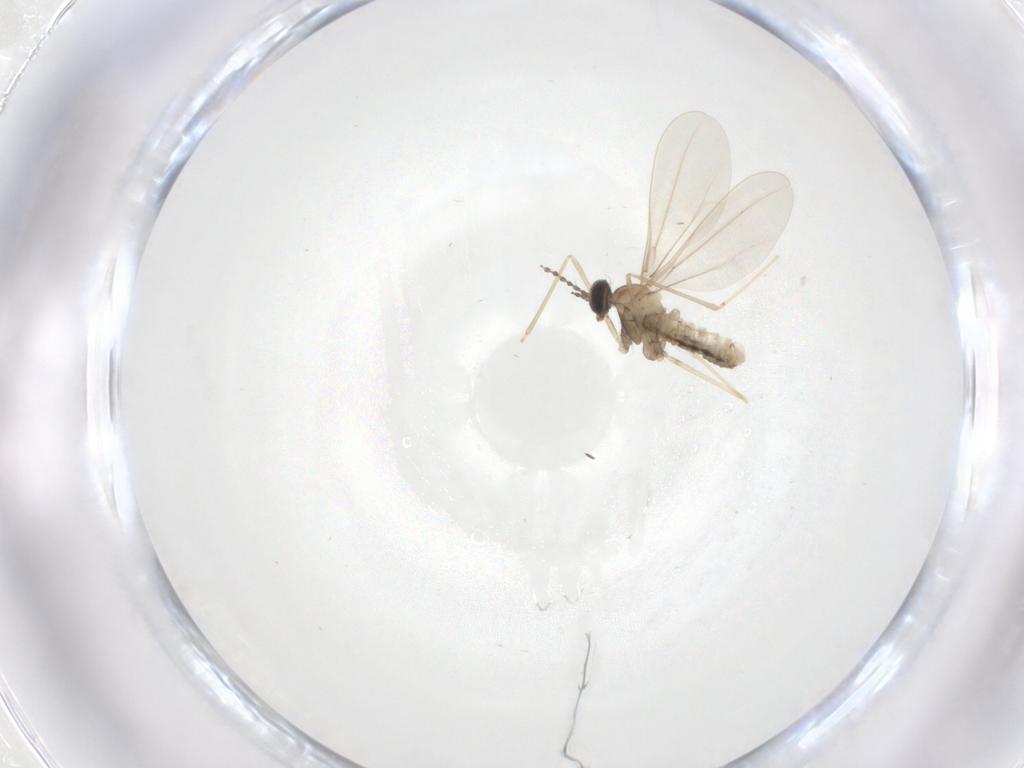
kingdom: Animalia
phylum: Arthropoda
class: Insecta
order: Diptera
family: Cecidomyiidae
